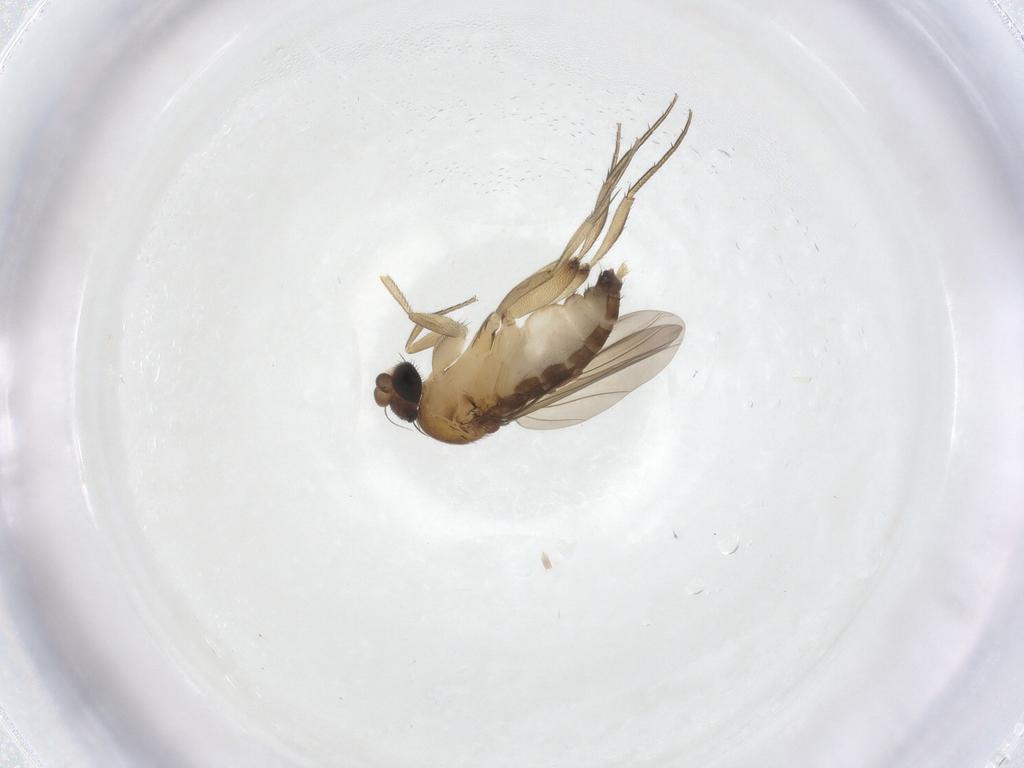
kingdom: Animalia
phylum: Arthropoda
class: Insecta
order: Diptera
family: Phoridae
